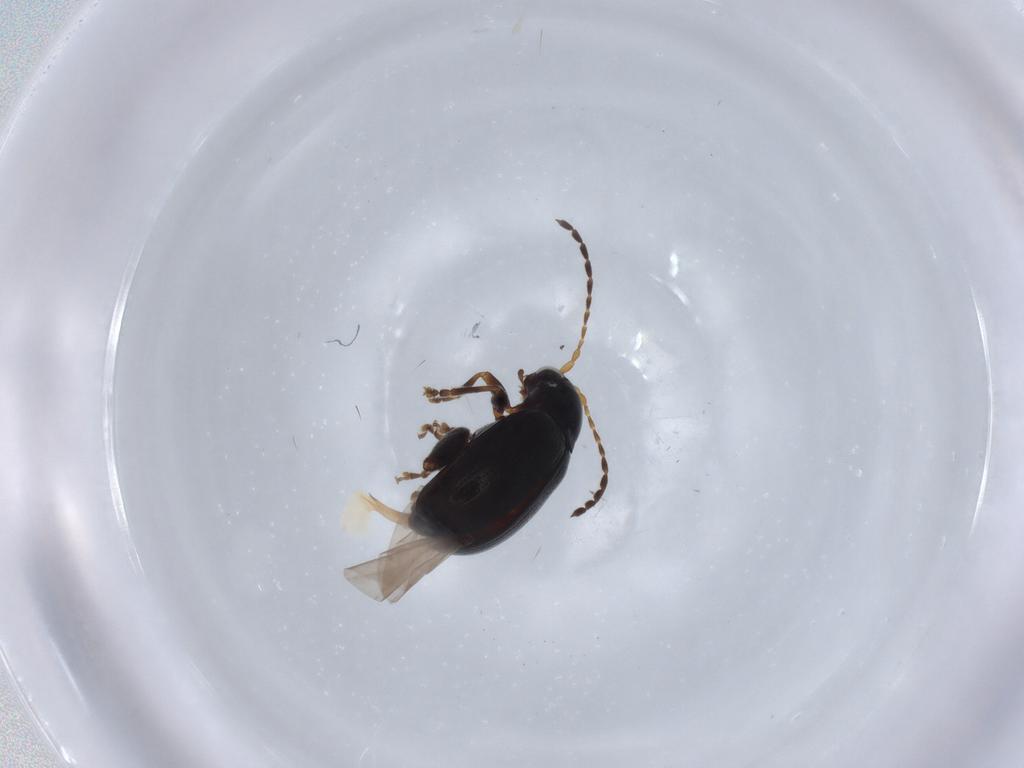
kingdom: Animalia
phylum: Arthropoda
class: Insecta
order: Coleoptera
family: Chrysomelidae
